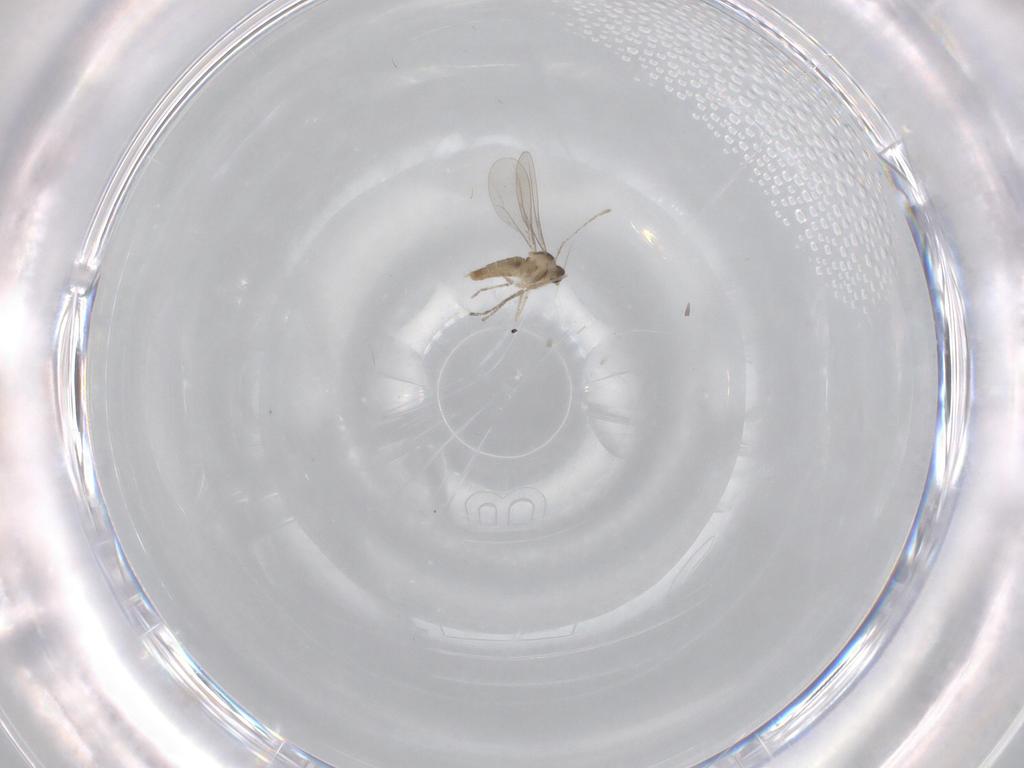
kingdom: Animalia
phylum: Arthropoda
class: Insecta
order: Diptera
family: Cecidomyiidae
